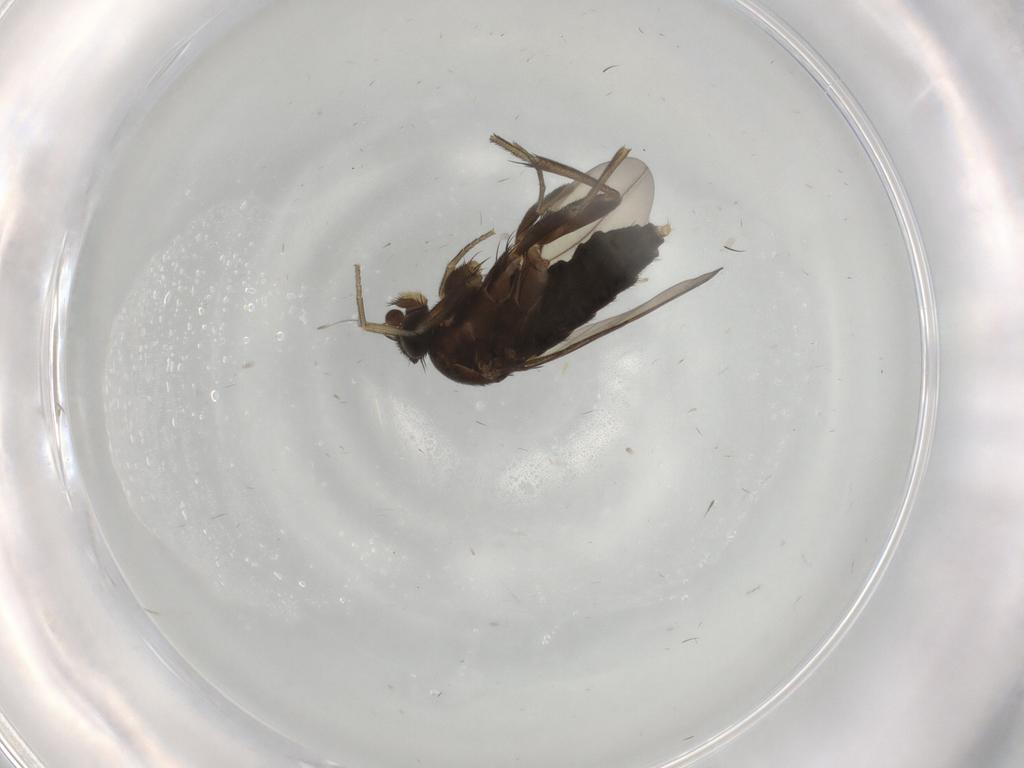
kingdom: Animalia
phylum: Arthropoda
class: Insecta
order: Diptera
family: Phoridae
